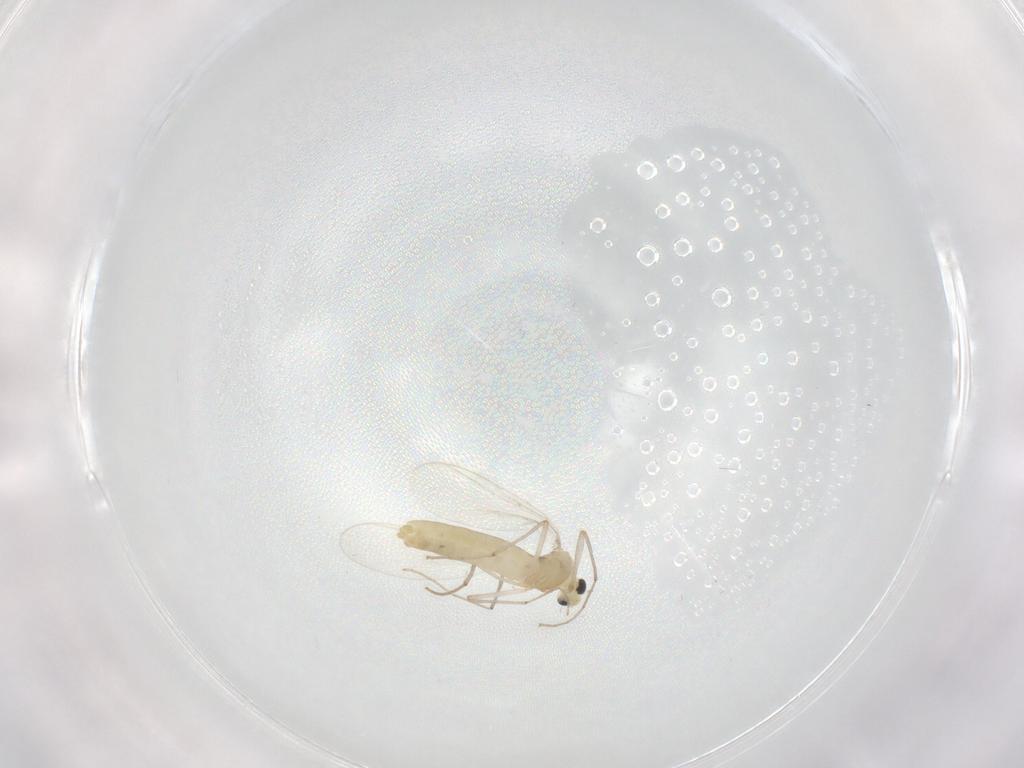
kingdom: Animalia
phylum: Arthropoda
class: Insecta
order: Diptera
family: Chironomidae
